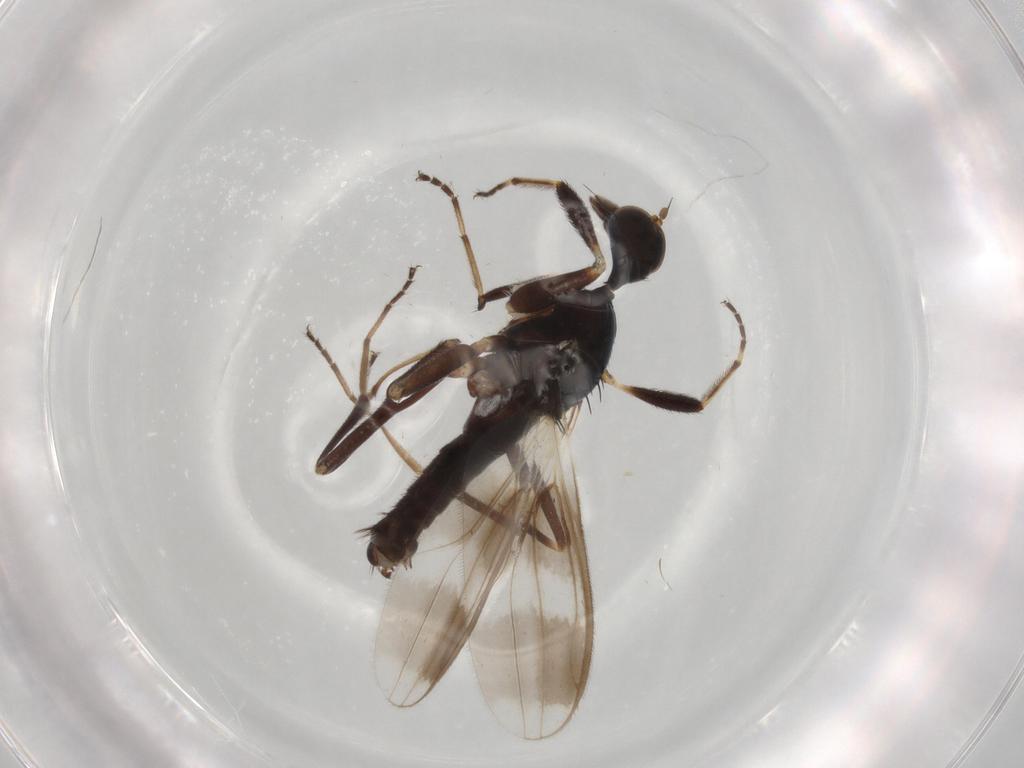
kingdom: Animalia
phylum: Arthropoda
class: Insecta
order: Diptera
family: Hybotidae
